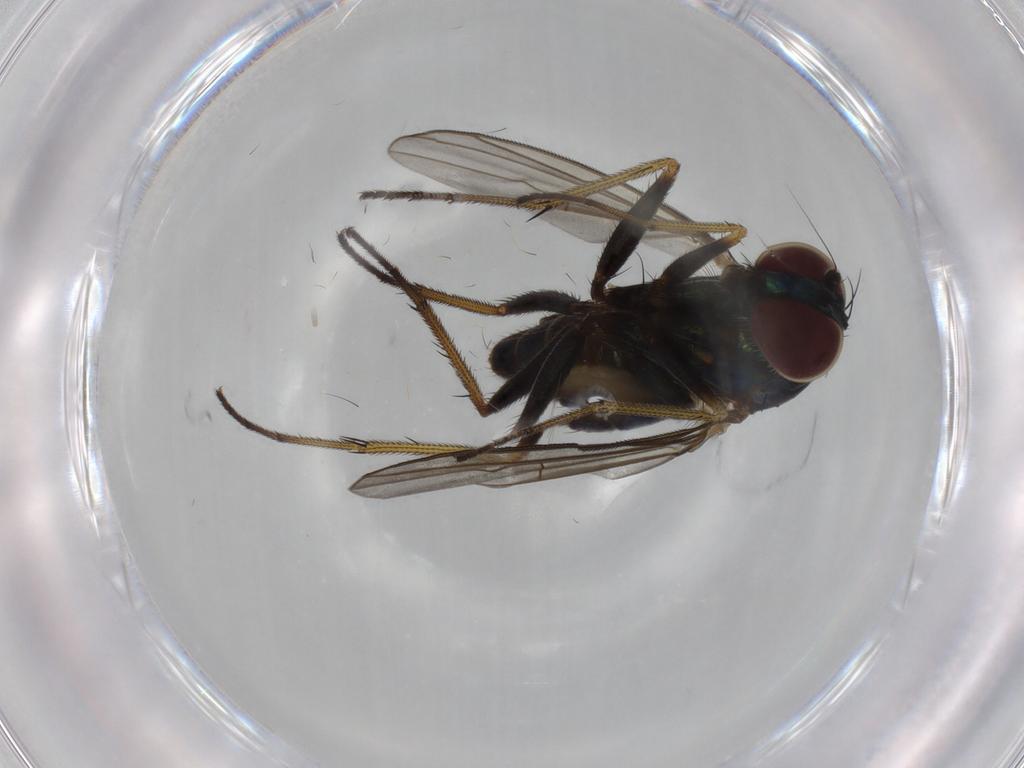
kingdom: Animalia
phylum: Arthropoda
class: Insecta
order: Diptera
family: Dolichopodidae
